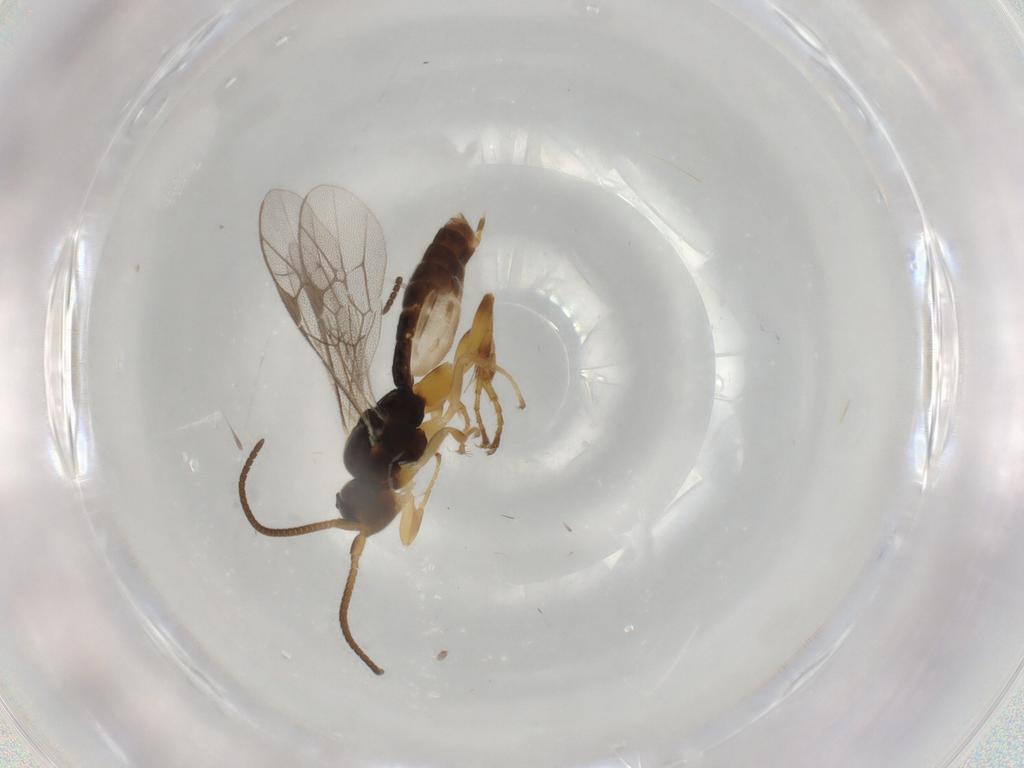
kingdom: Animalia
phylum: Arthropoda
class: Insecta
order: Hymenoptera
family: Ichneumonidae
